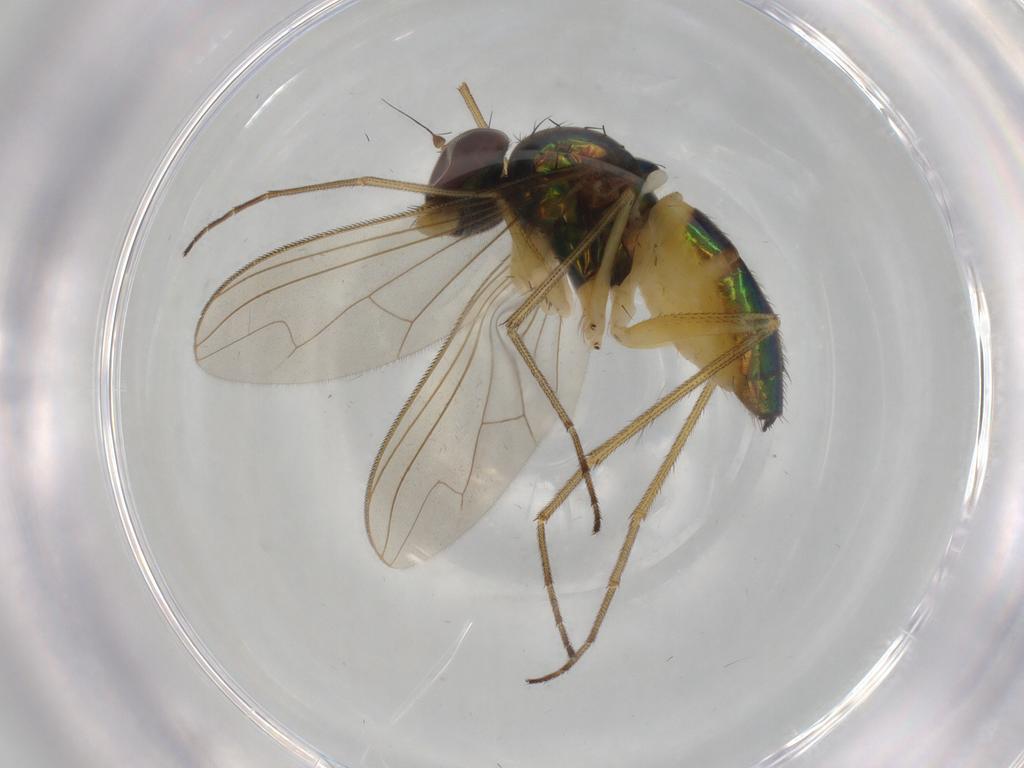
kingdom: Animalia
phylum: Arthropoda
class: Insecta
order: Diptera
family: Dolichopodidae
